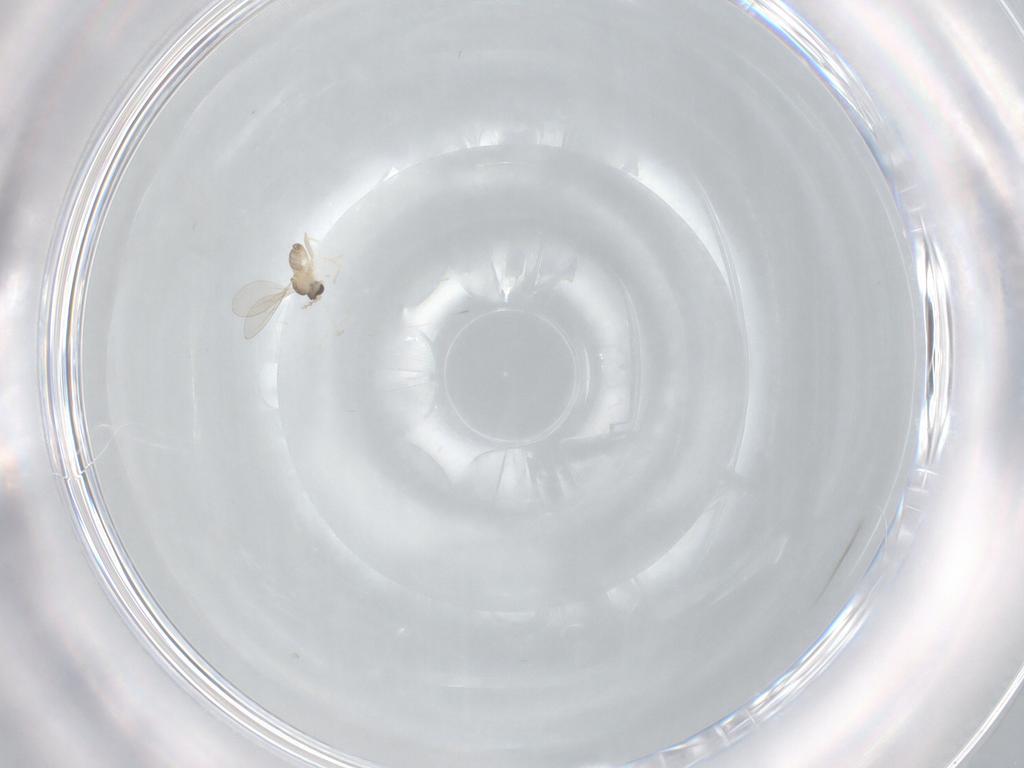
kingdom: Animalia
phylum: Arthropoda
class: Insecta
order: Diptera
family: Cecidomyiidae
